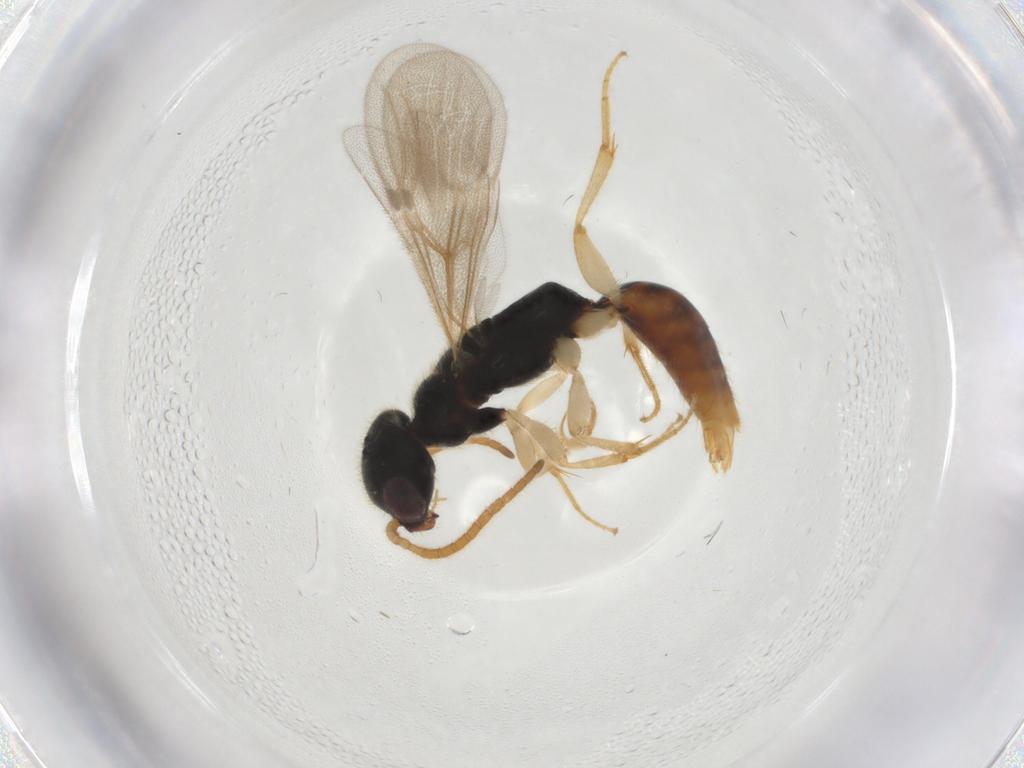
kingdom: Animalia
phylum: Arthropoda
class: Insecta
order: Hymenoptera
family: Bethylidae
